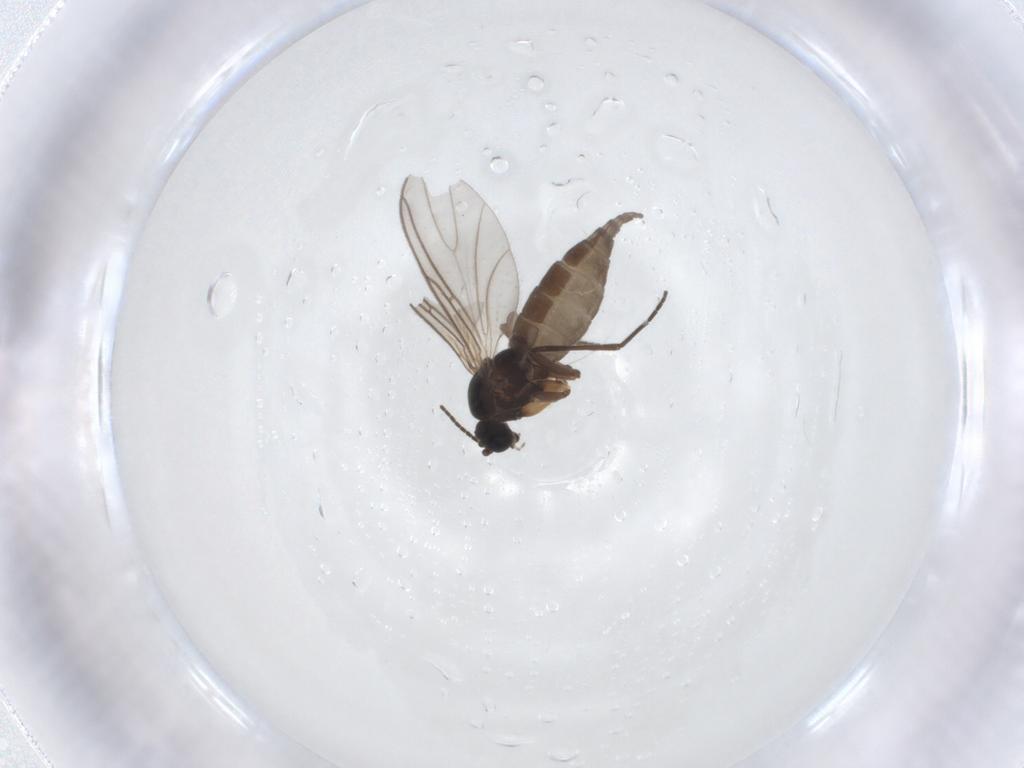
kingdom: Animalia
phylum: Arthropoda
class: Insecta
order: Diptera
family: Sciaridae
